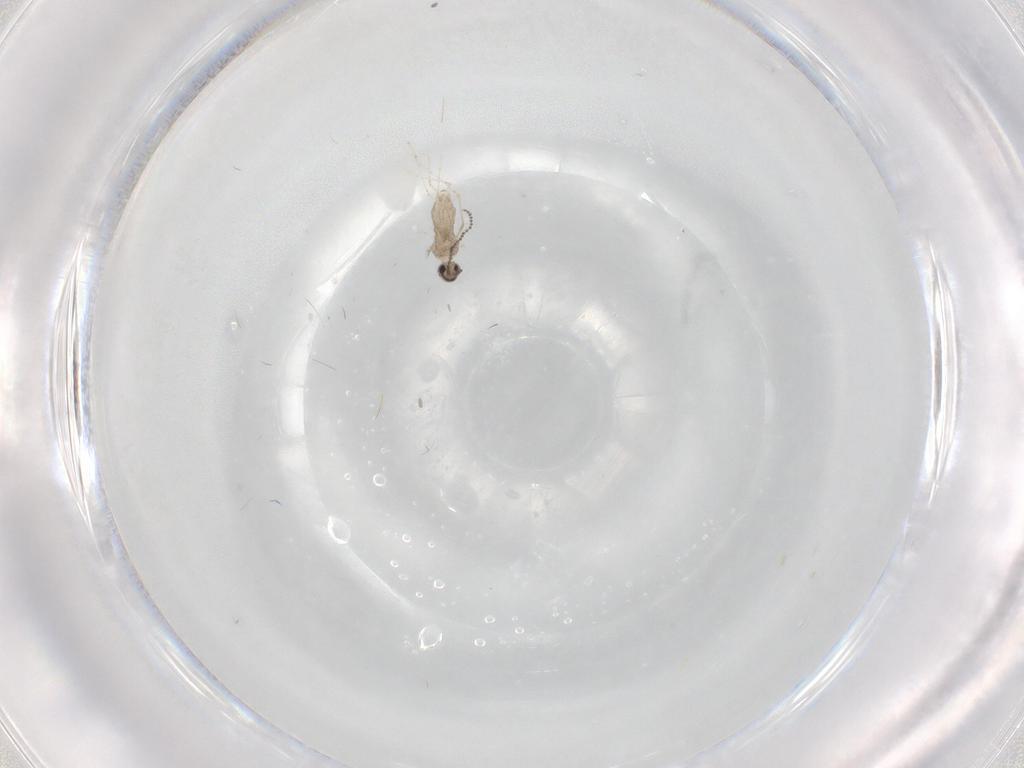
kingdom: Animalia
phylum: Arthropoda
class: Insecta
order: Diptera
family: Cecidomyiidae
